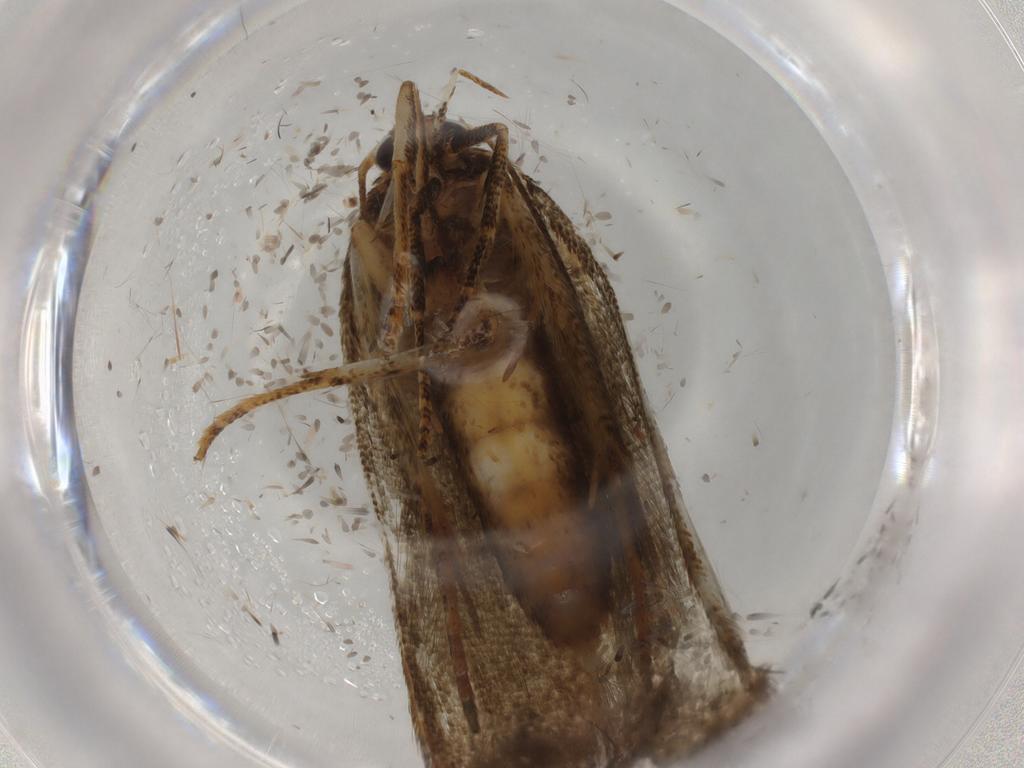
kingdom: Animalia
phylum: Arthropoda
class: Insecta
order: Lepidoptera
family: Blastobasidae
